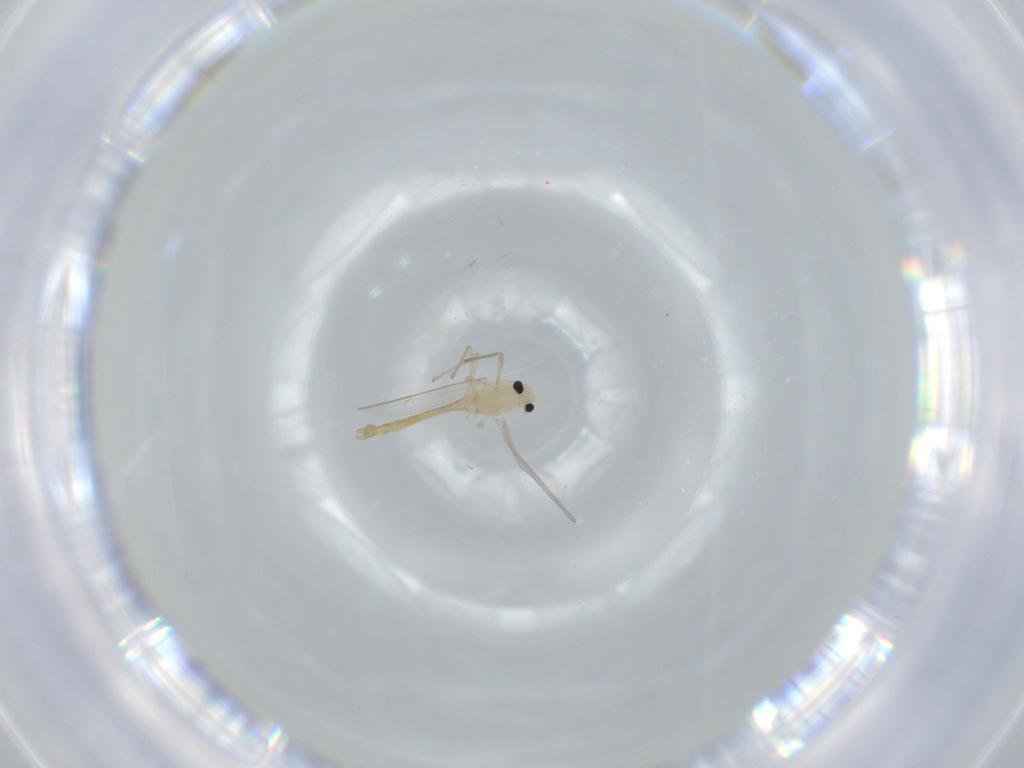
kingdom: Animalia
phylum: Arthropoda
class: Insecta
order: Diptera
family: Chironomidae
